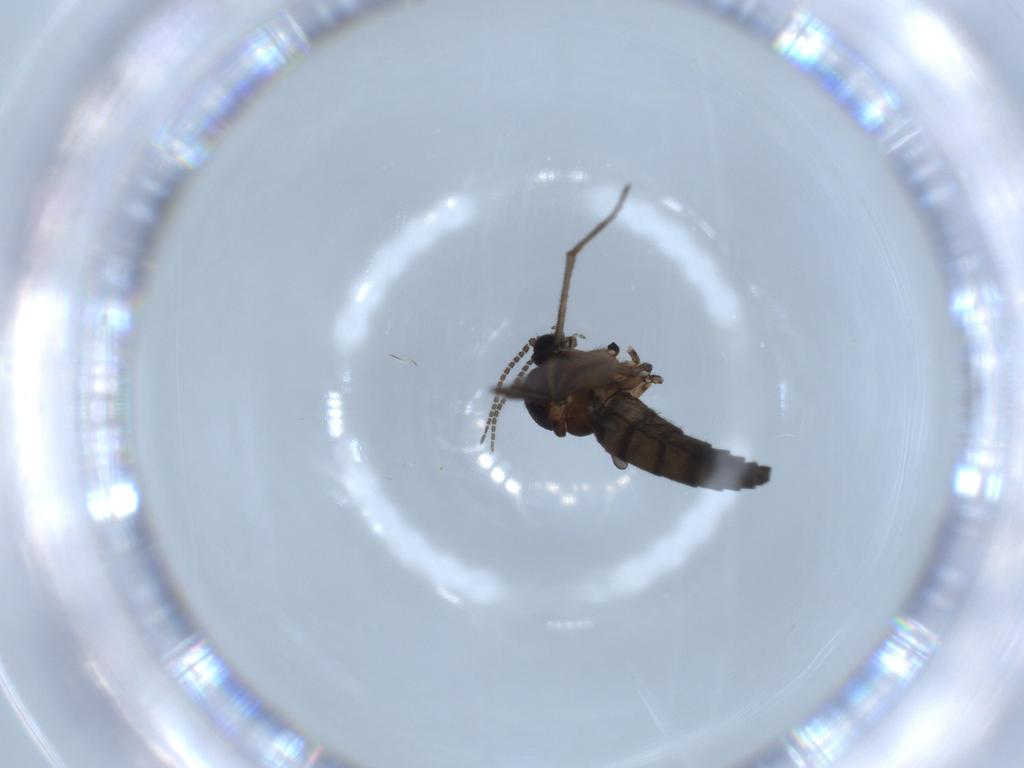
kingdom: Animalia
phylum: Arthropoda
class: Insecta
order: Diptera
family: Sciaridae
